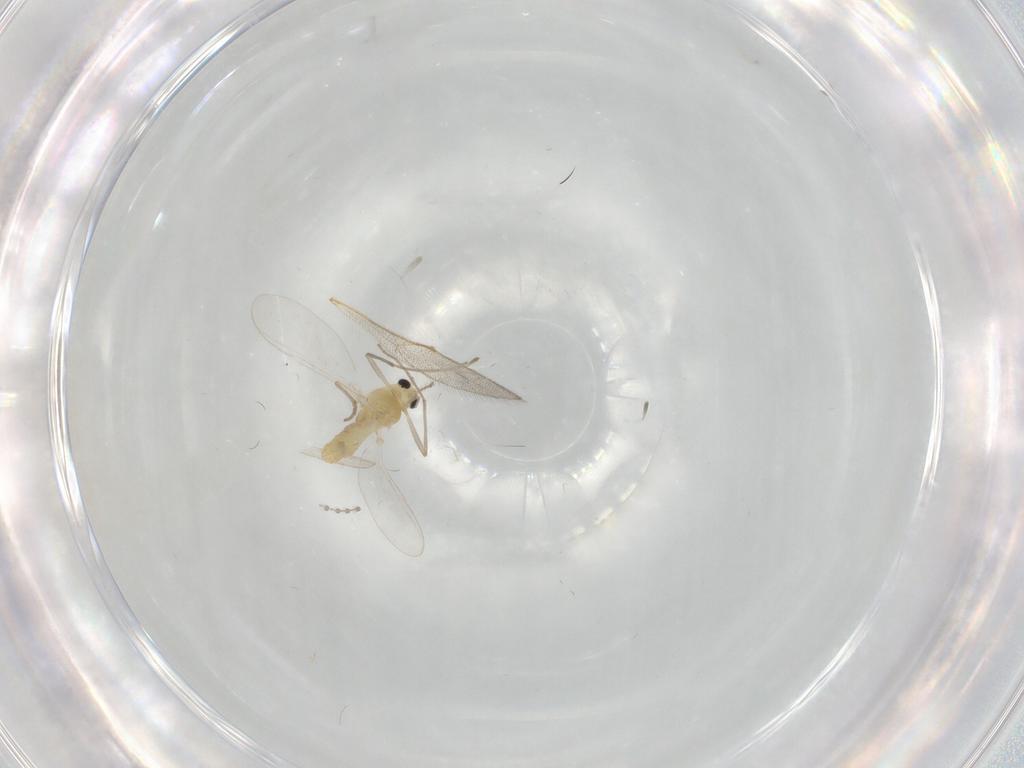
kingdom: Animalia
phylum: Arthropoda
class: Insecta
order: Diptera
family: Chironomidae
